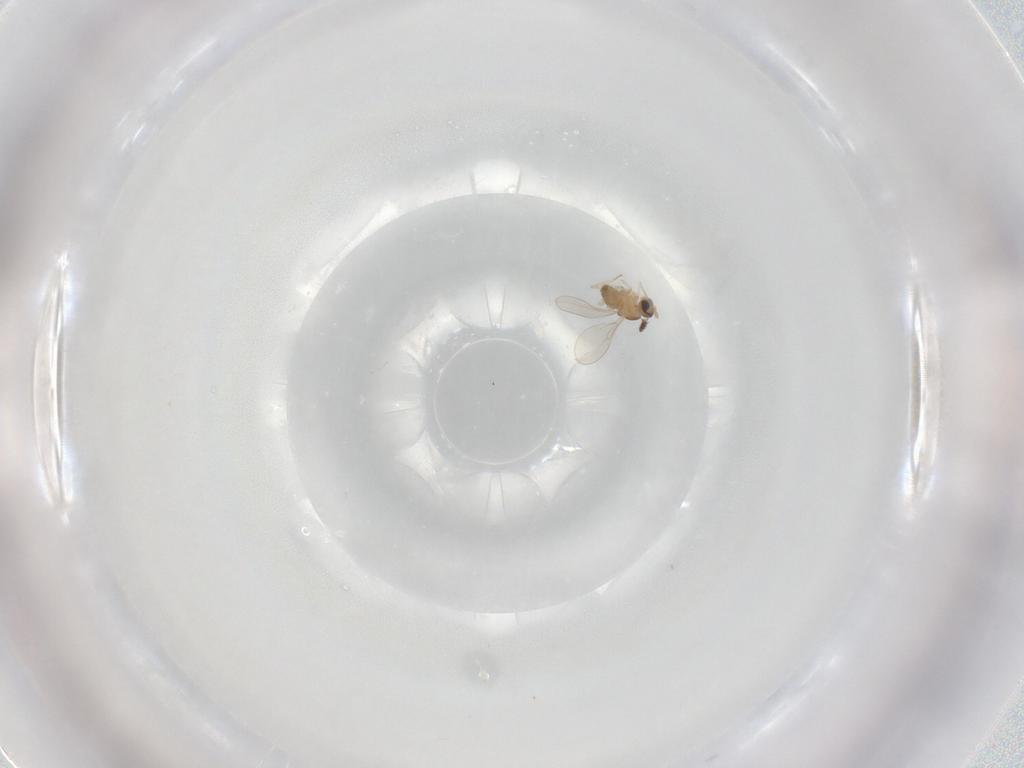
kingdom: Animalia
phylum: Arthropoda
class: Insecta
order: Diptera
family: Cecidomyiidae
